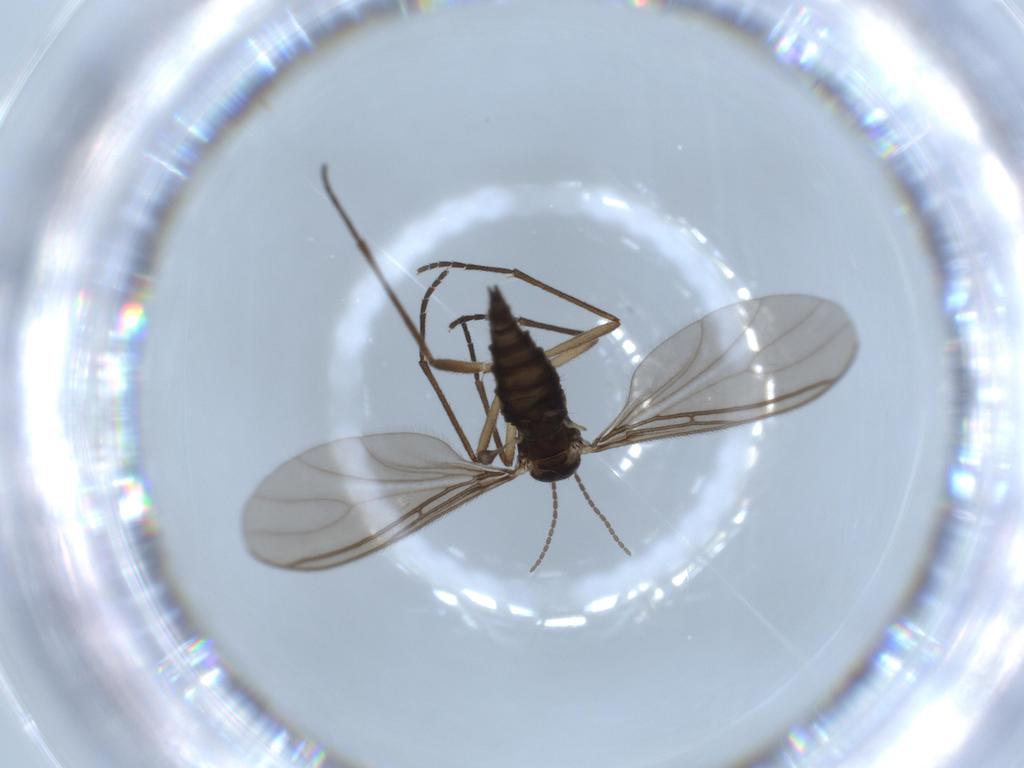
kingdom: Animalia
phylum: Arthropoda
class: Insecta
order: Diptera
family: Sciaridae
